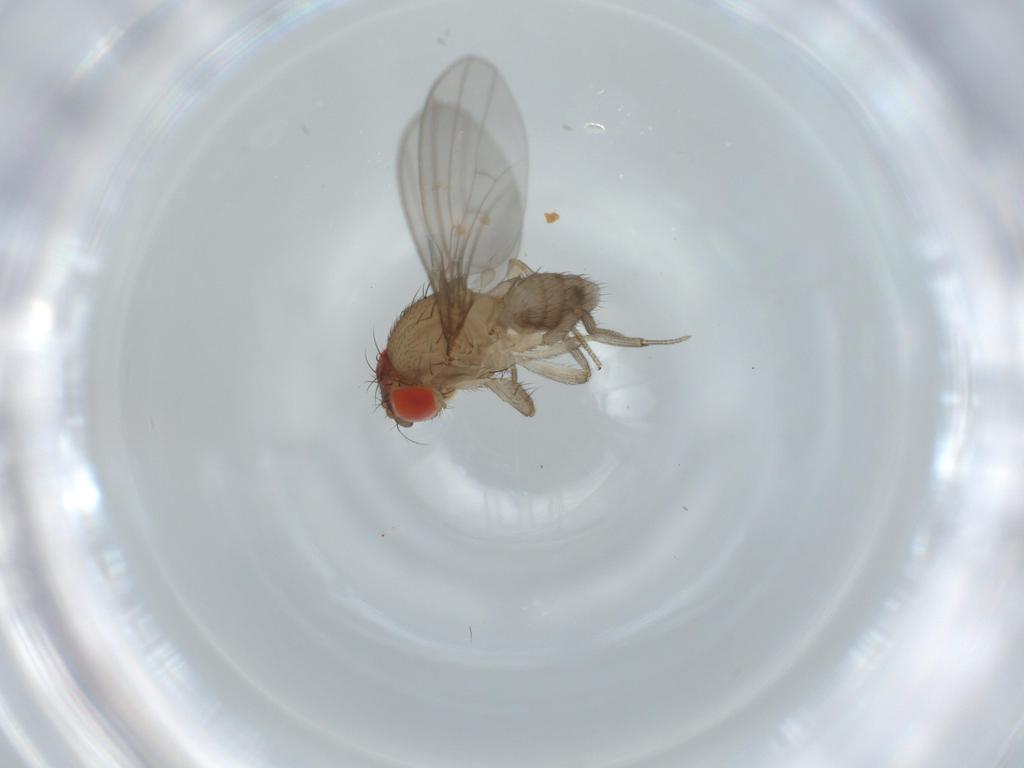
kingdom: Animalia
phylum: Arthropoda
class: Insecta
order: Diptera
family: Drosophilidae
